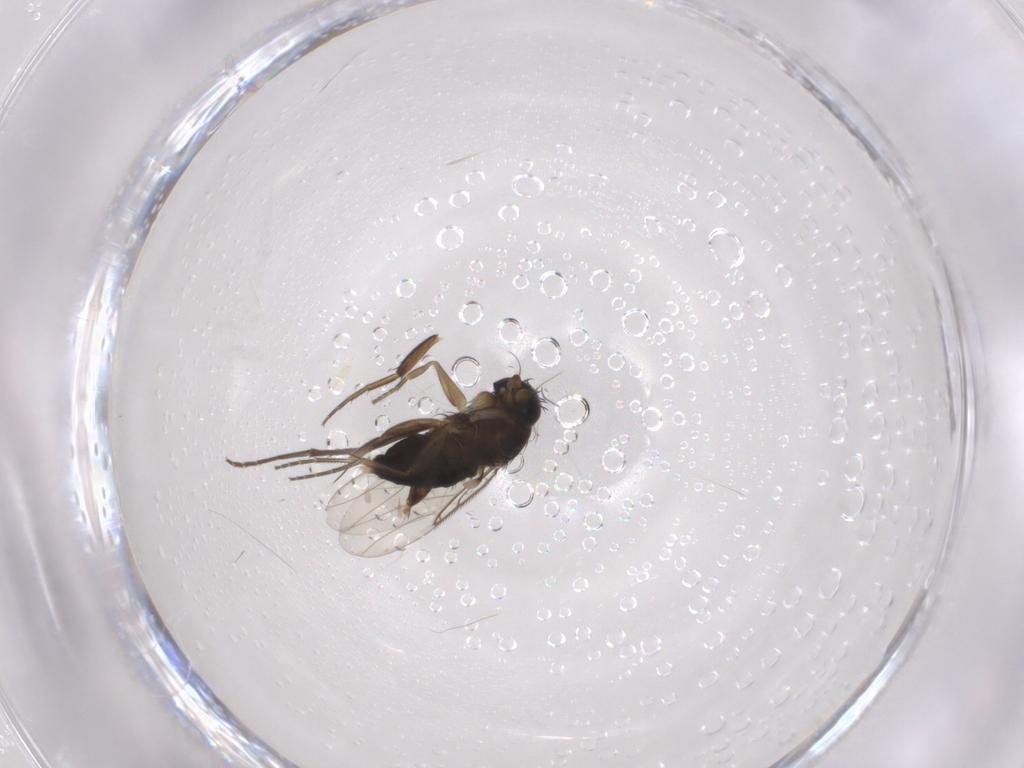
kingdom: Animalia
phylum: Arthropoda
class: Insecta
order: Diptera
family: Phoridae
